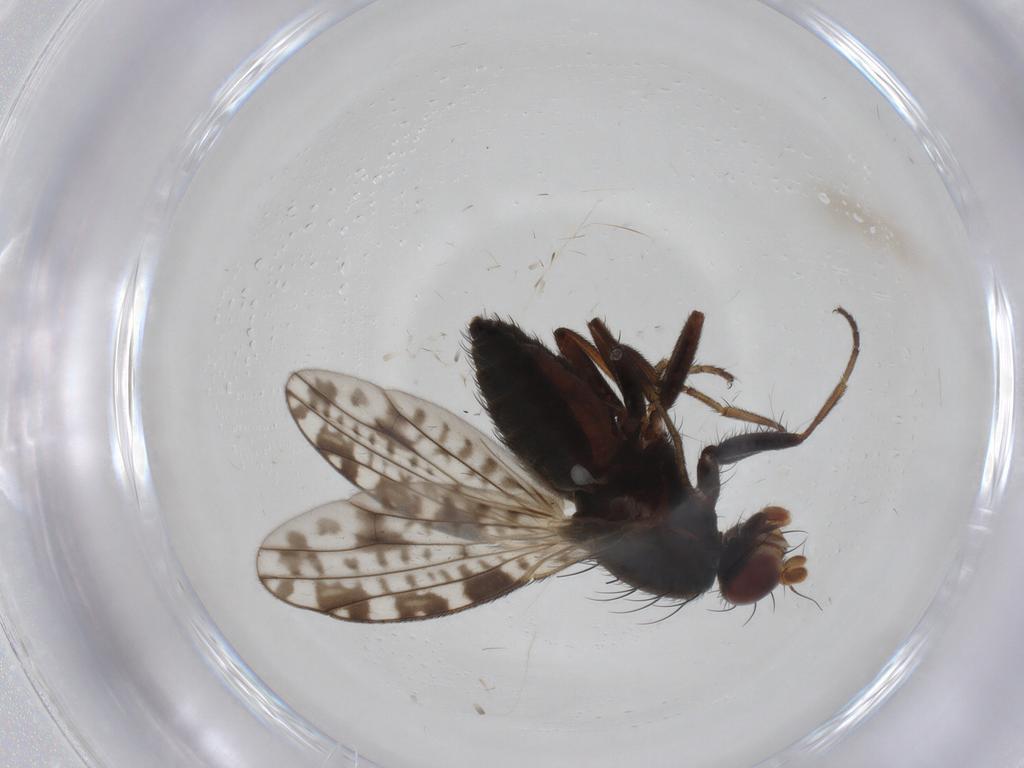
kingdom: Animalia
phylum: Arthropoda
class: Insecta
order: Diptera
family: Heleomyzidae
